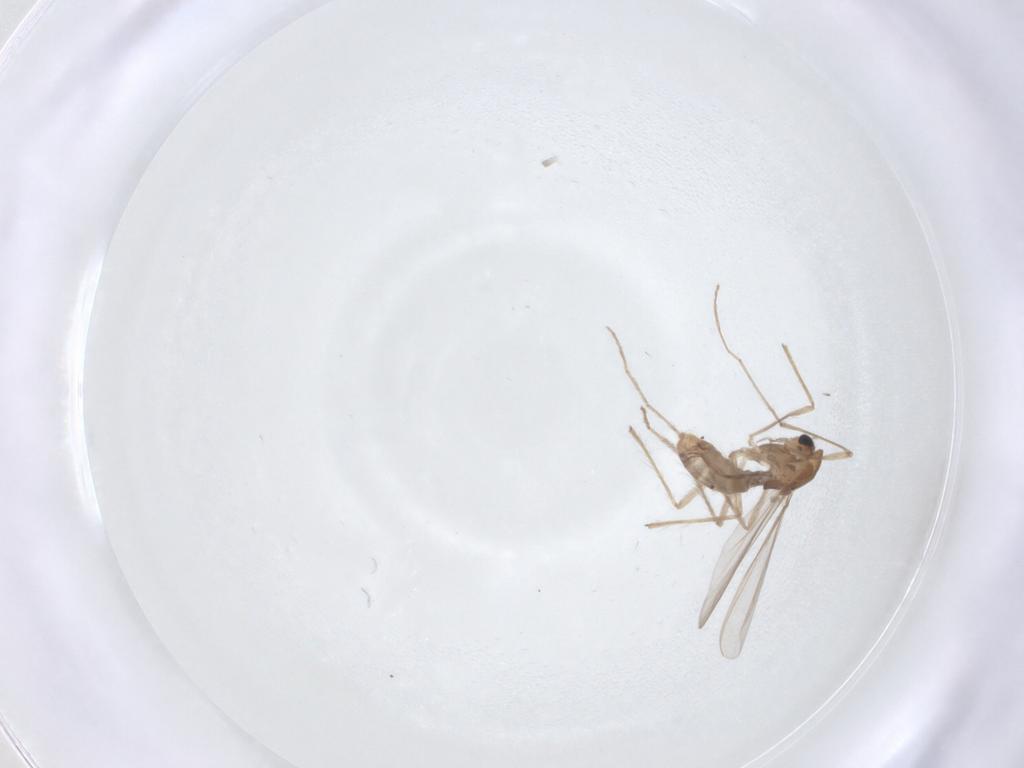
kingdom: Animalia
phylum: Arthropoda
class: Insecta
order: Diptera
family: Chironomidae
